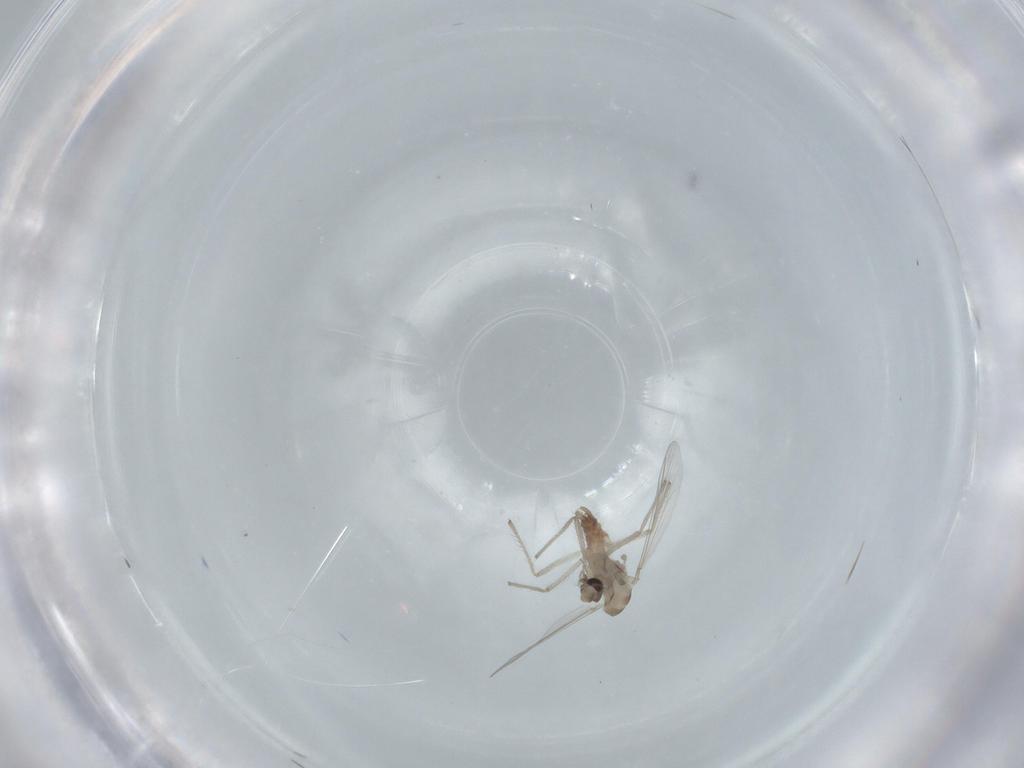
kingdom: Animalia
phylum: Arthropoda
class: Insecta
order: Diptera
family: Chironomidae
